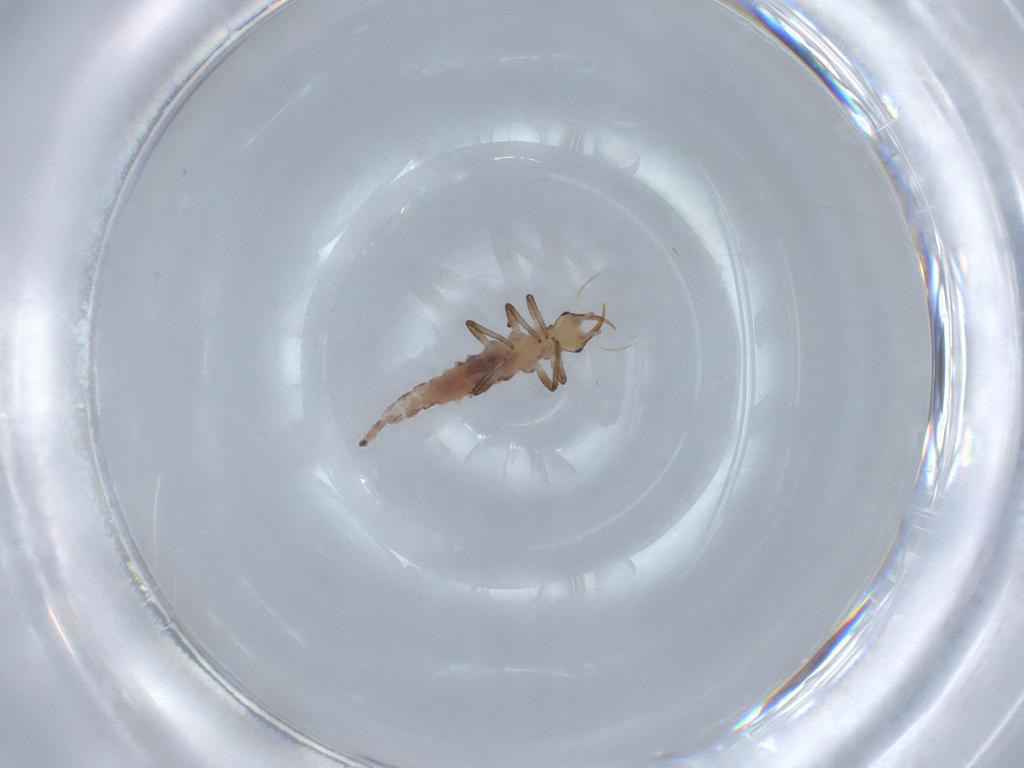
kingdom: Animalia
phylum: Arthropoda
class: Insecta
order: Neuroptera
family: Chrysopidae
